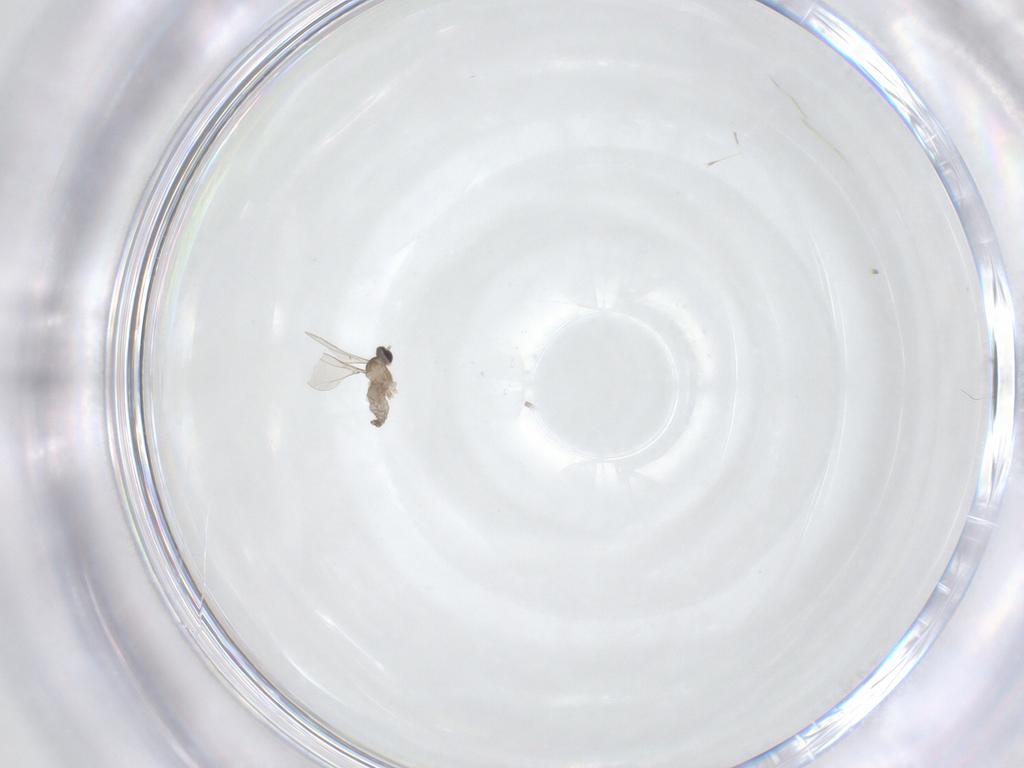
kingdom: Animalia
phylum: Arthropoda
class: Insecta
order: Diptera
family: Cecidomyiidae
